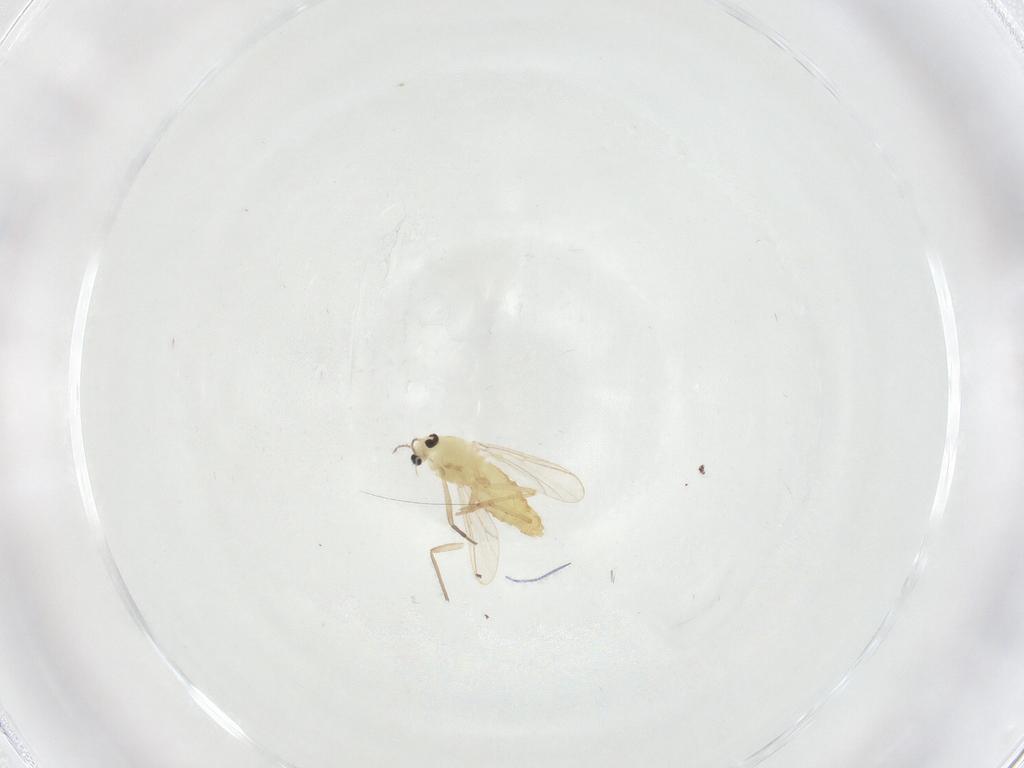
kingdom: Animalia
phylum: Arthropoda
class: Insecta
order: Diptera
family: Chironomidae
